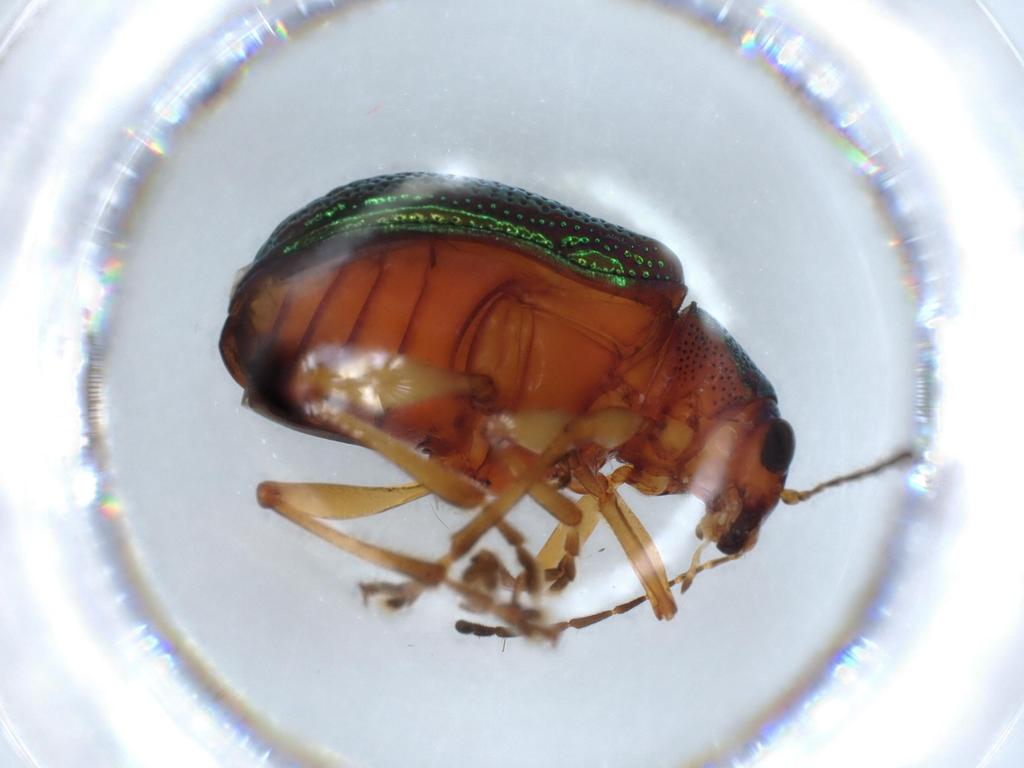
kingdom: Animalia
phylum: Arthropoda
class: Insecta
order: Coleoptera
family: Chrysomelidae
